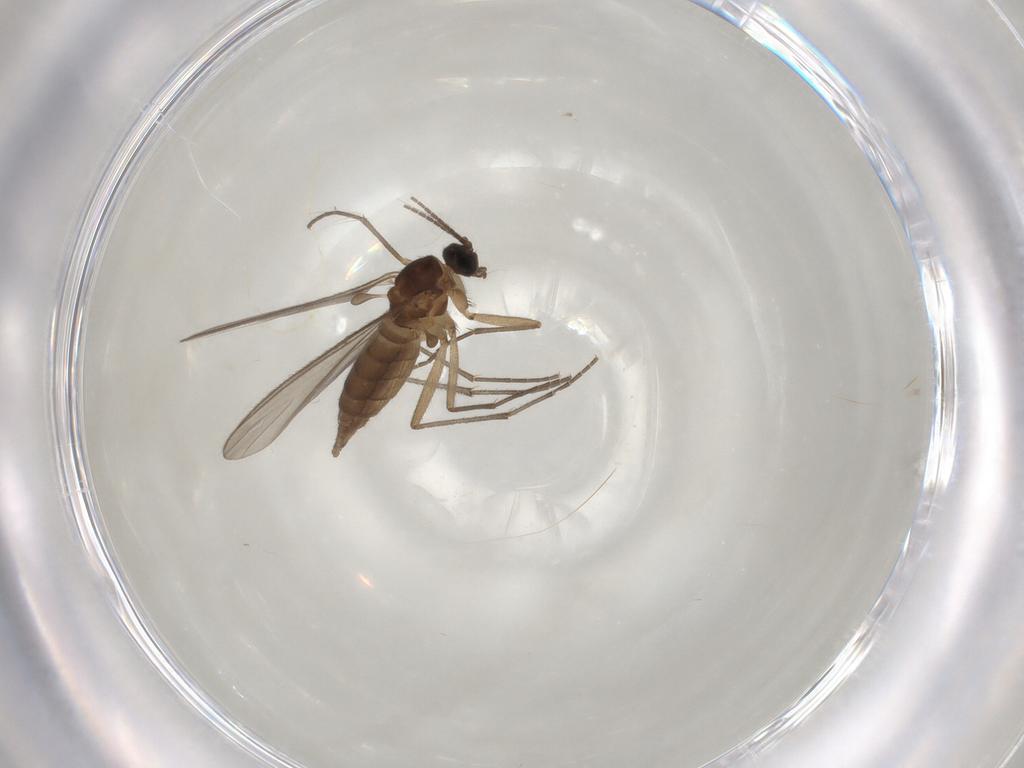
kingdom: Animalia
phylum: Arthropoda
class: Insecta
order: Diptera
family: Sciaridae
